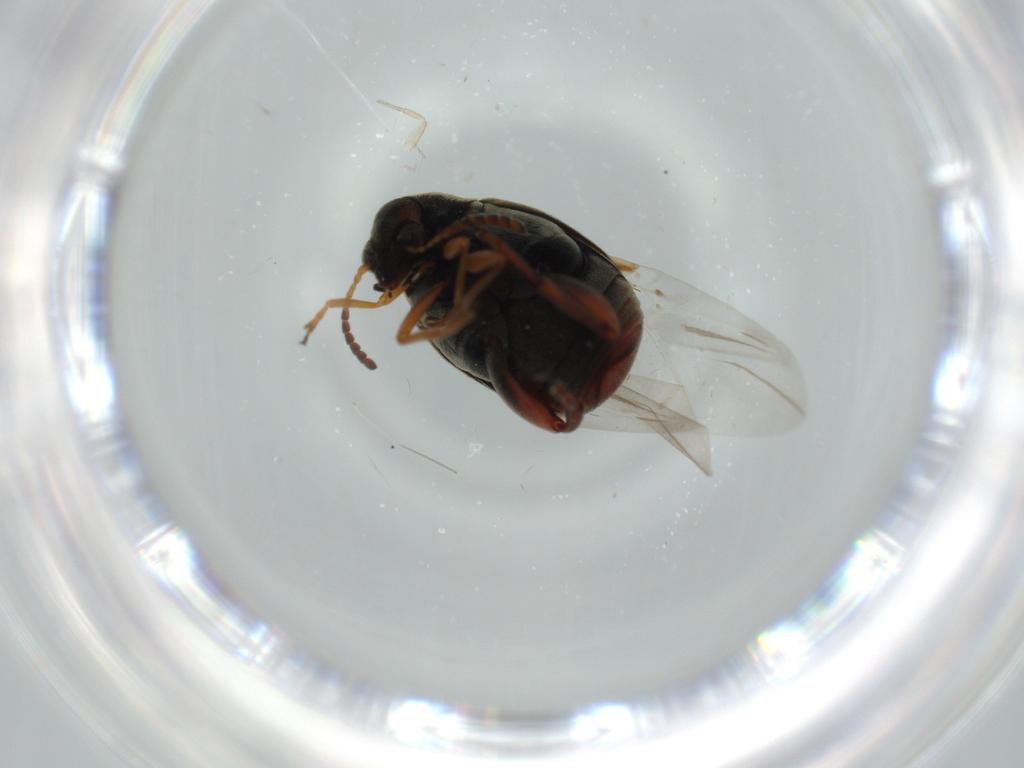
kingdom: Animalia
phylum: Arthropoda
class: Insecta
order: Coleoptera
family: Chrysomelidae
